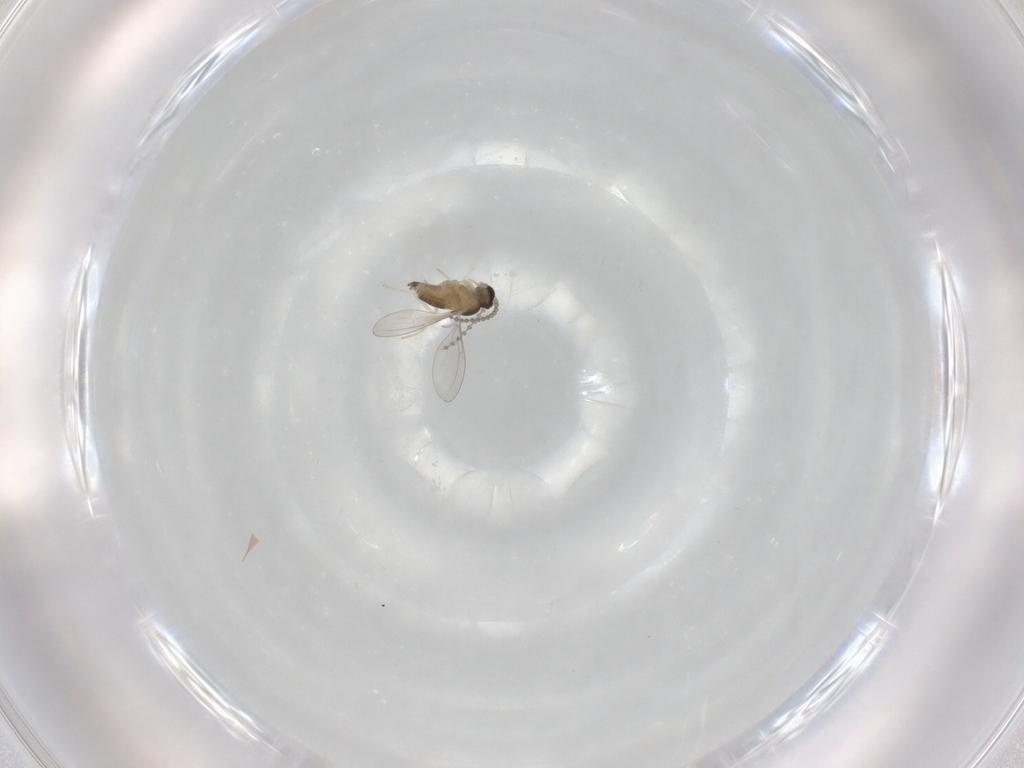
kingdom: Animalia
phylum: Arthropoda
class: Insecta
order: Diptera
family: Cecidomyiidae
